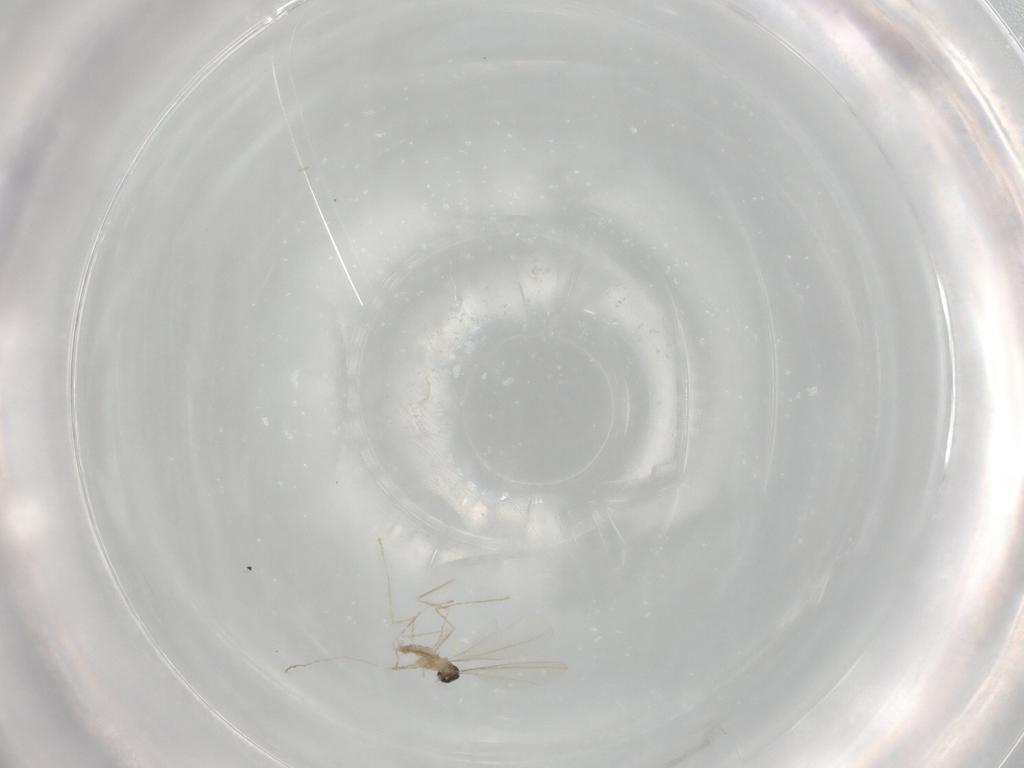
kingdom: Animalia
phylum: Arthropoda
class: Insecta
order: Diptera
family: Cecidomyiidae
